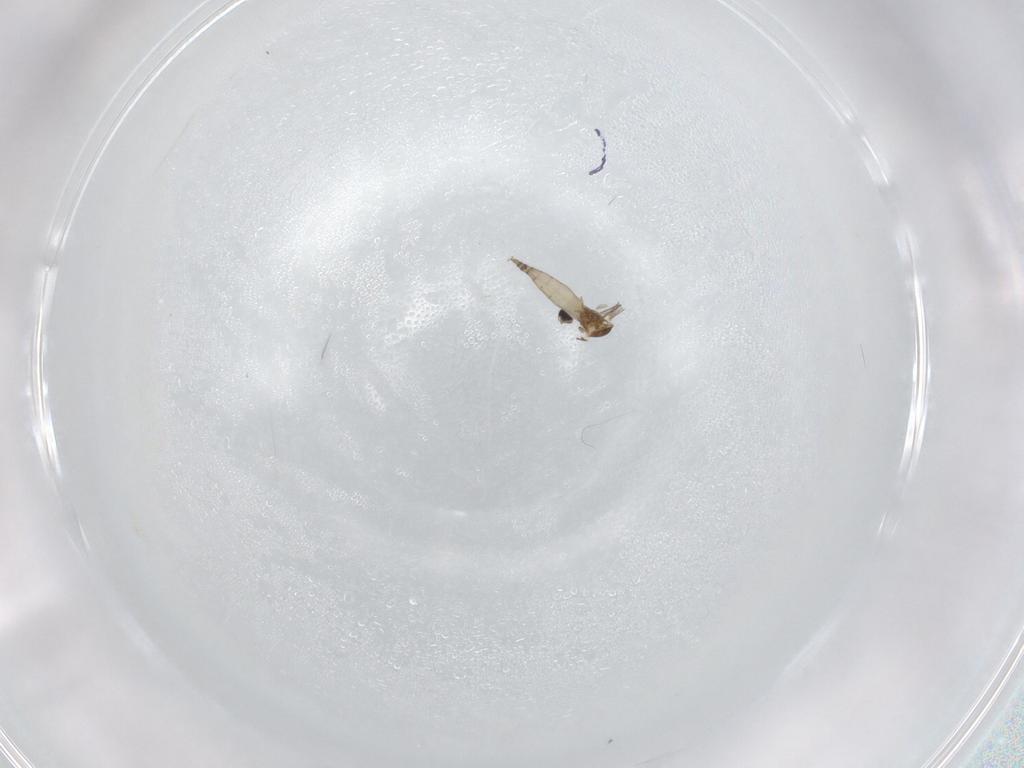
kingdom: Animalia
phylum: Arthropoda
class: Insecta
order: Diptera
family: Cecidomyiidae
